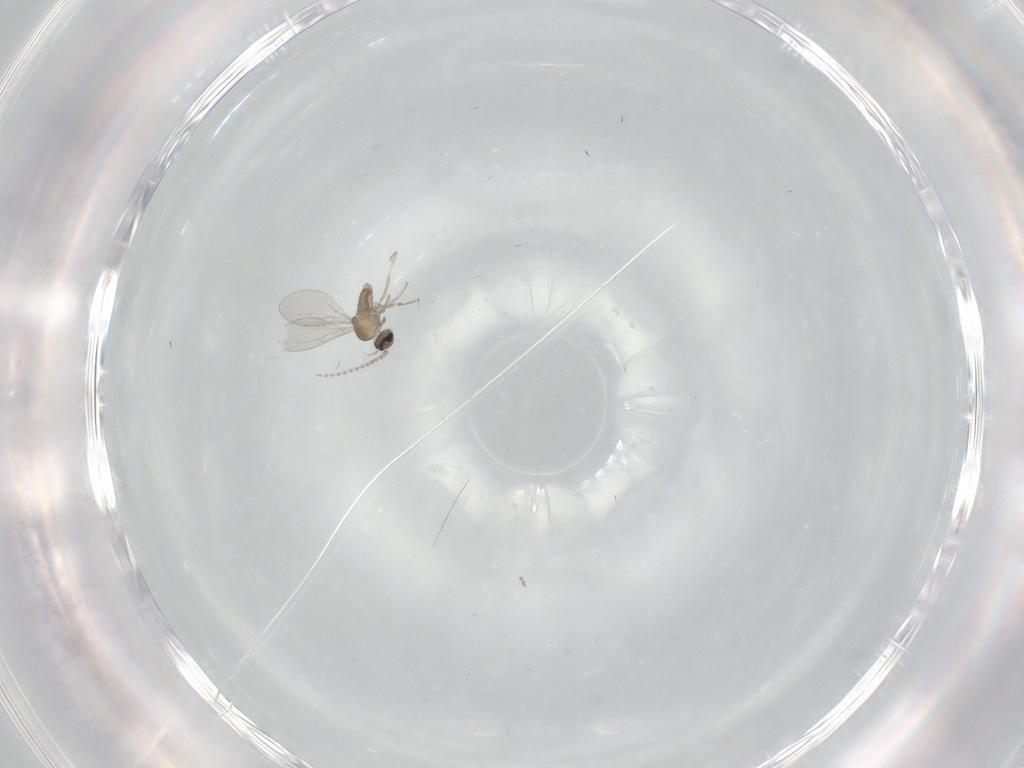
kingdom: Animalia
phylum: Arthropoda
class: Insecta
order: Diptera
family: Cecidomyiidae
